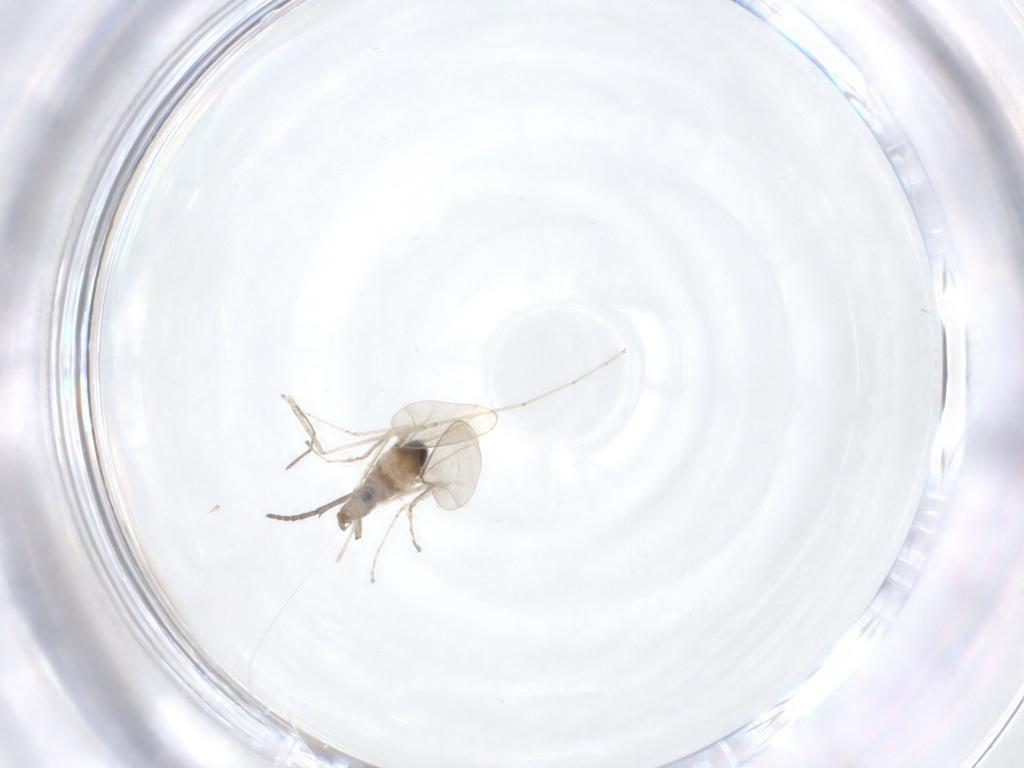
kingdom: Animalia
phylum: Arthropoda
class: Insecta
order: Diptera
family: Cecidomyiidae
